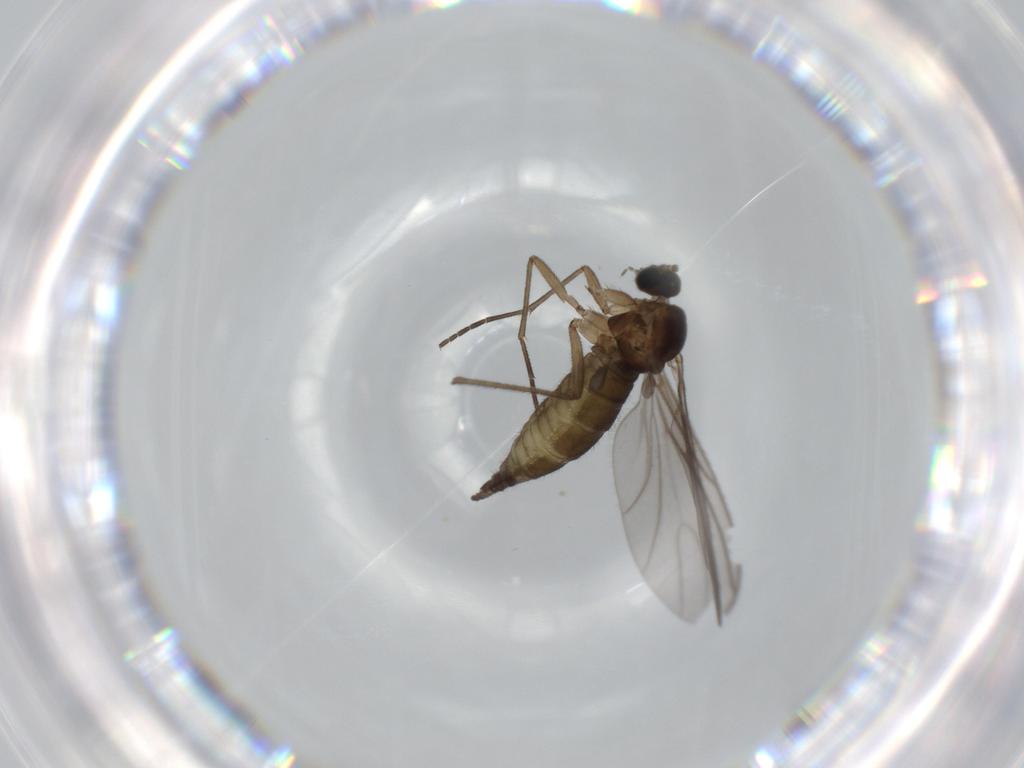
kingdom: Animalia
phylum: Arthropoda
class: Insecta
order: Diptera
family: Sciaridae
